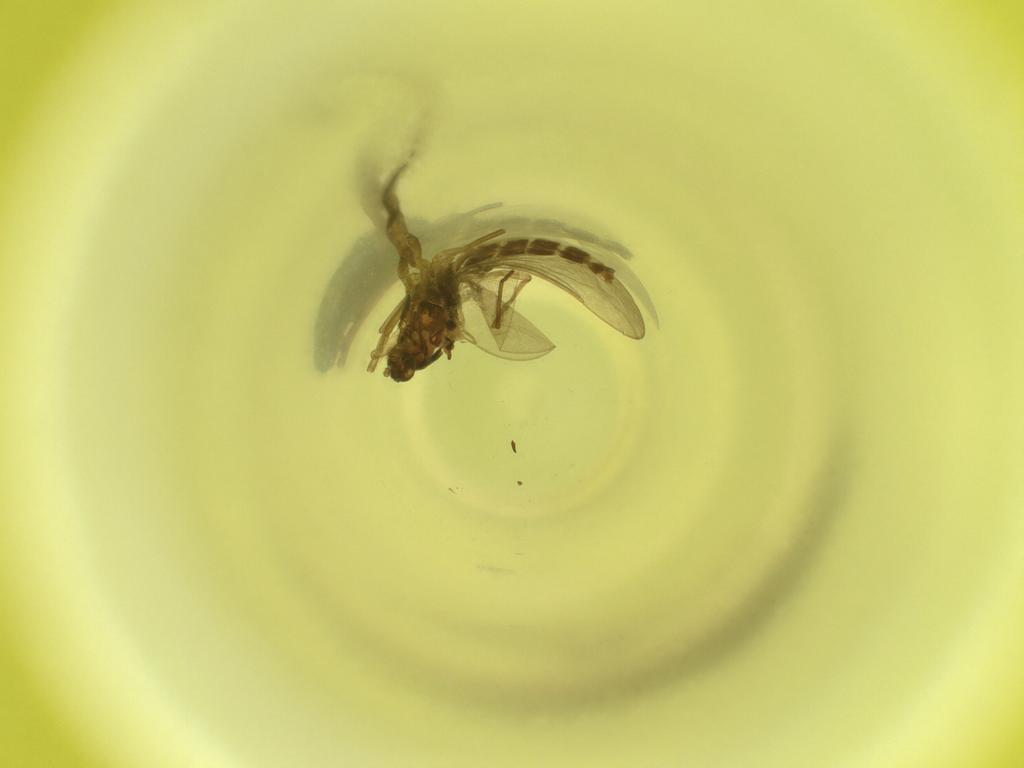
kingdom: Animalia
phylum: Arthropoda
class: Insecta
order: Diptera
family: Cecidomyiidae
